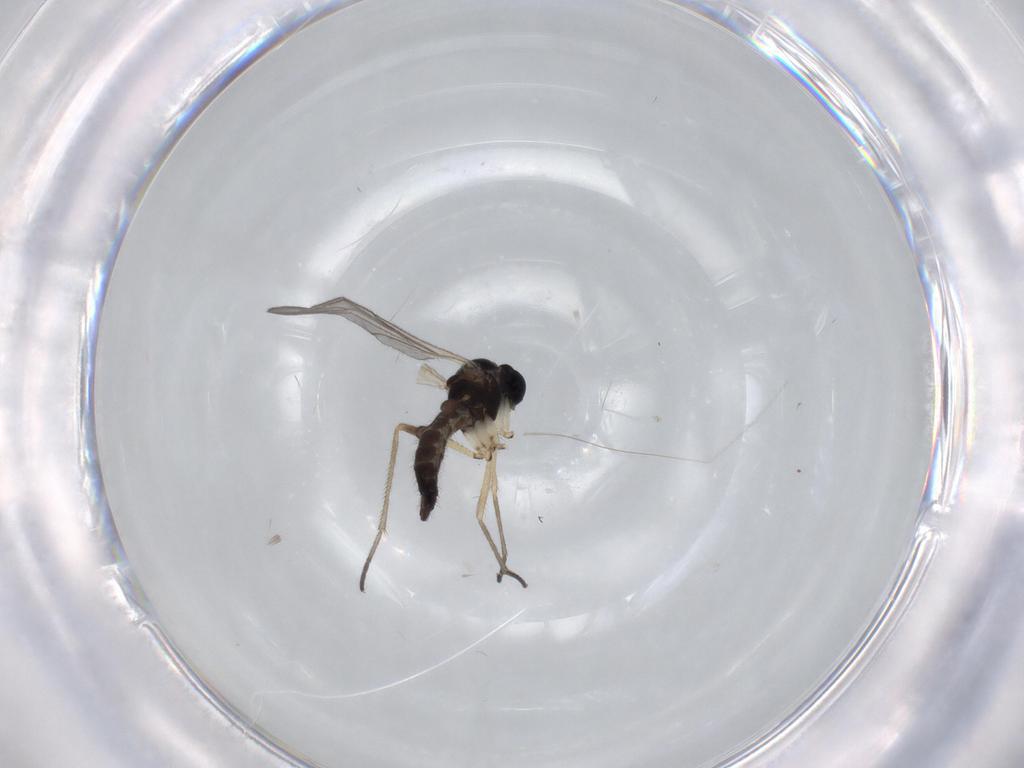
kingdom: Animalia
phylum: Arthropoda
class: Insecta
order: Diptera
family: Sciaridae
